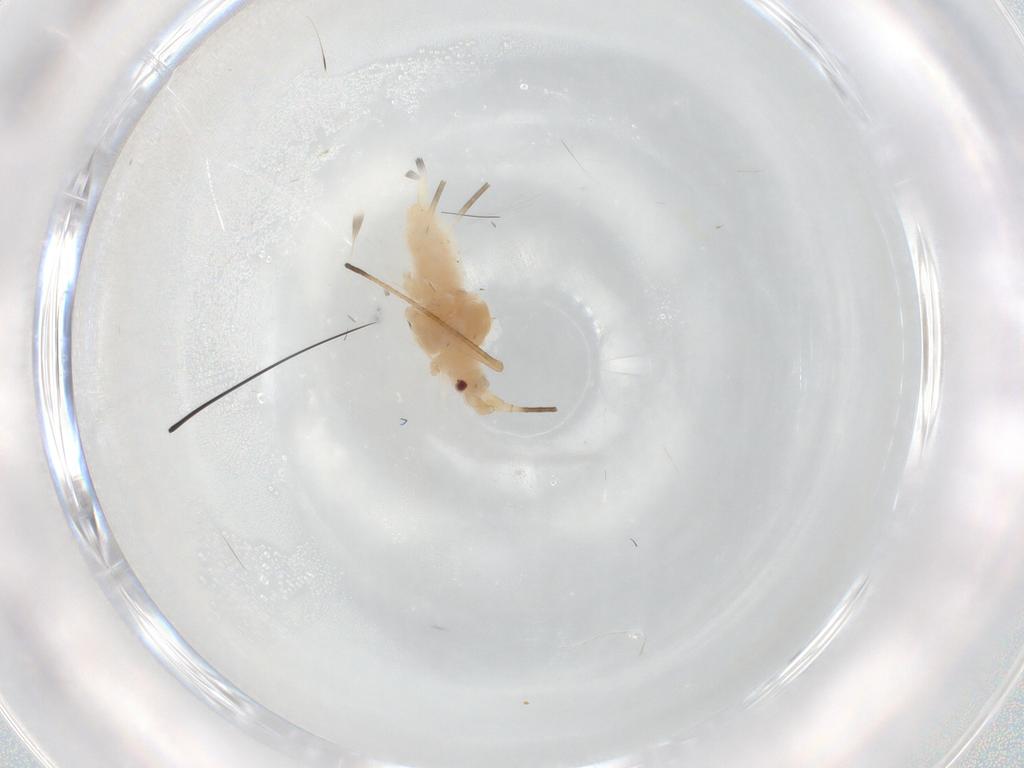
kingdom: Animalia
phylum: Arthropoda
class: Insecta
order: Hemiptera
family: Aphididae
